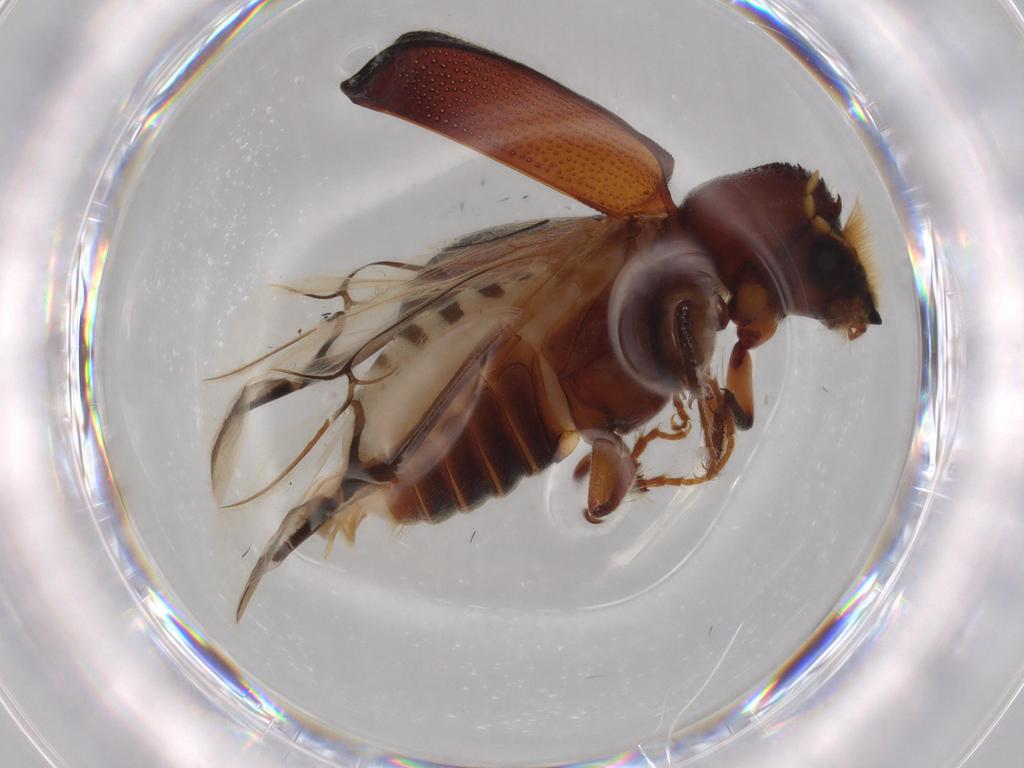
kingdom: Animalia
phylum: Arthropoda
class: Insecta
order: Coleoptera
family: Bostrichidae
